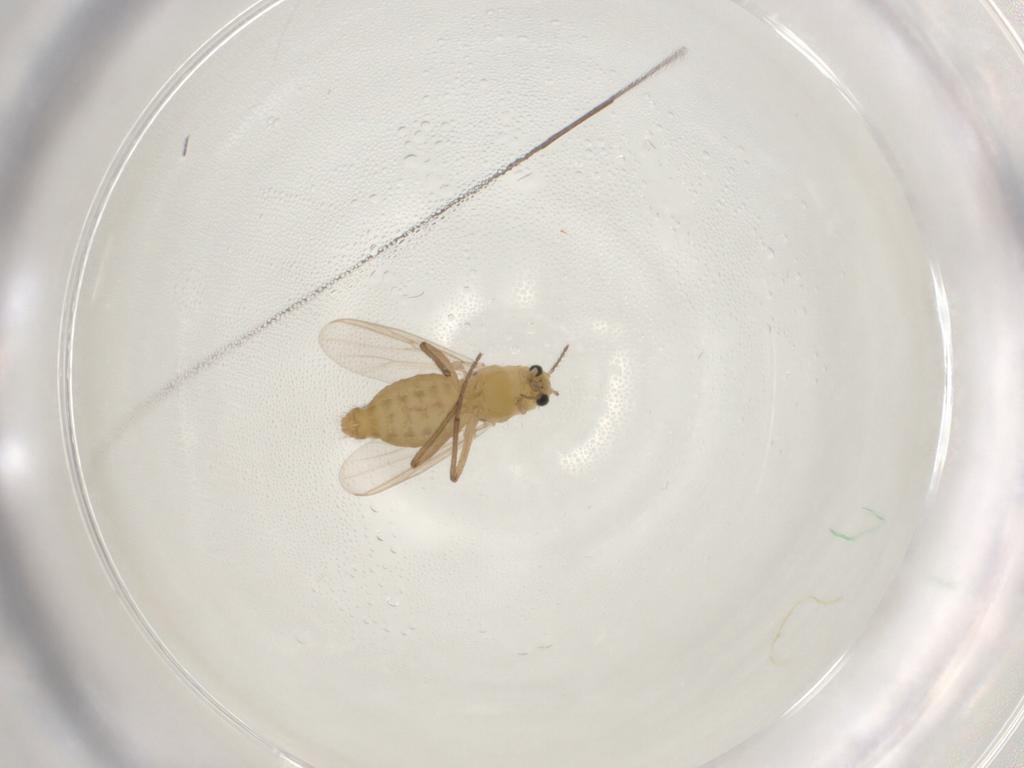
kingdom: Animalia
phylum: Arthropoda
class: Insecta
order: Diptera
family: Chironomidae
